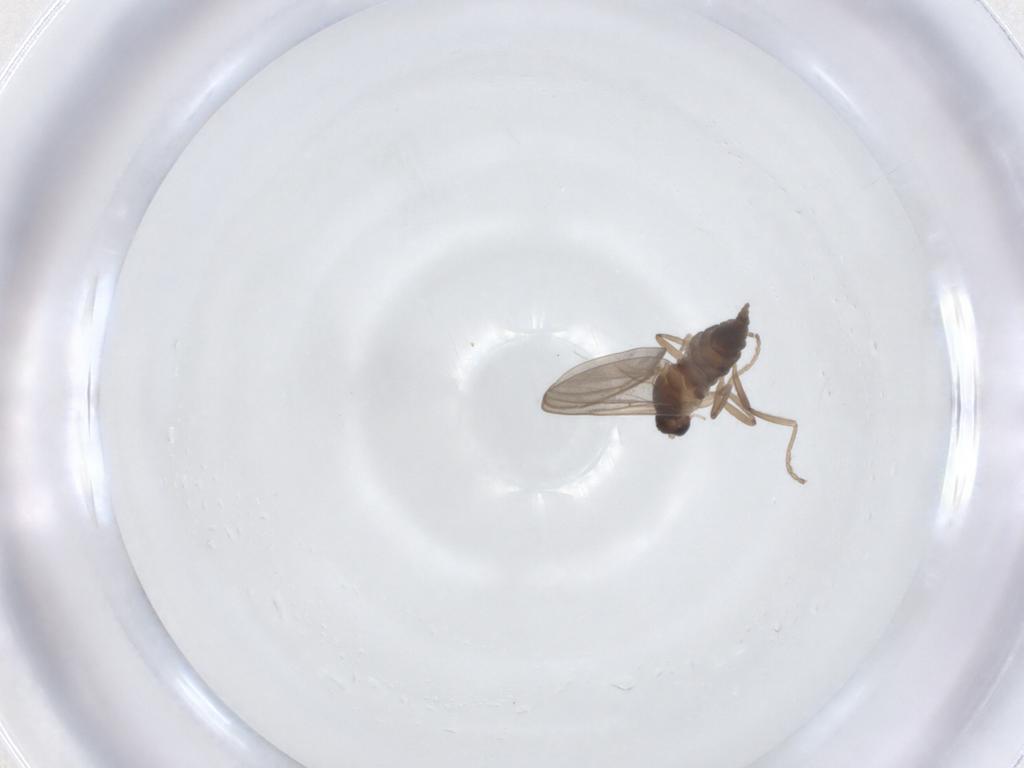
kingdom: Animalia
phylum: Arthropoda
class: Insecta
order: Diptera
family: Cecidomyiidae
